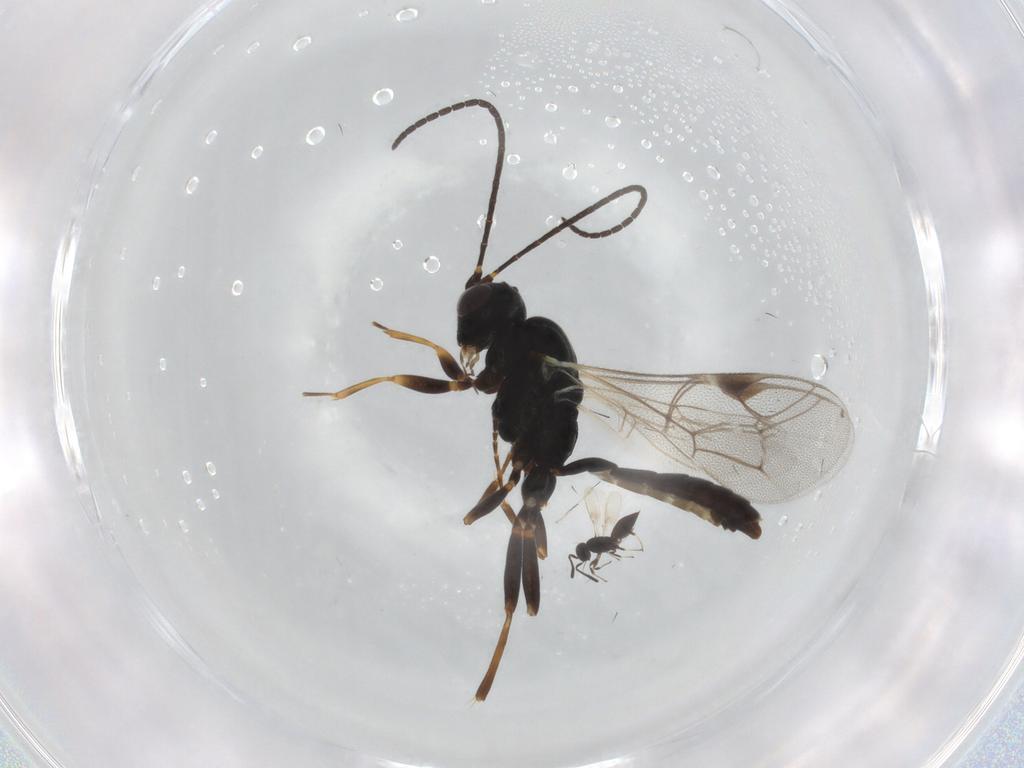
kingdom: Animalia
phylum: Arthropoda
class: Insecta
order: Hymenoptera
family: Ichneumonidae
